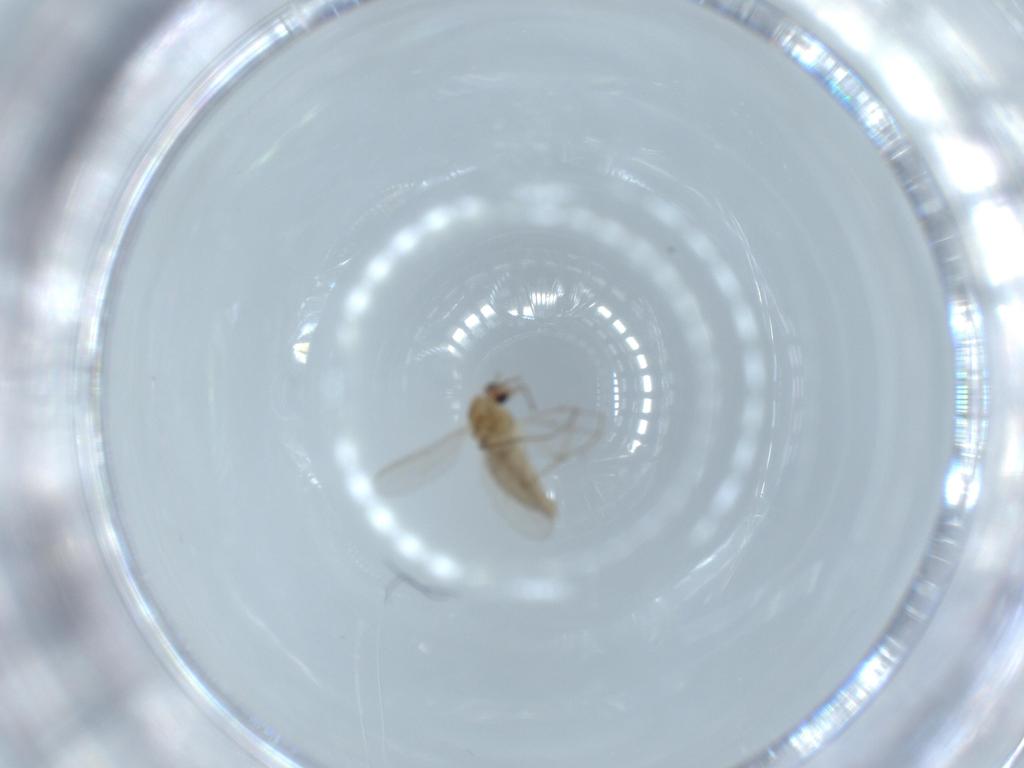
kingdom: Animalia
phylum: Arthropoda
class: Insecta
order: Diptera
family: Chironomidae
